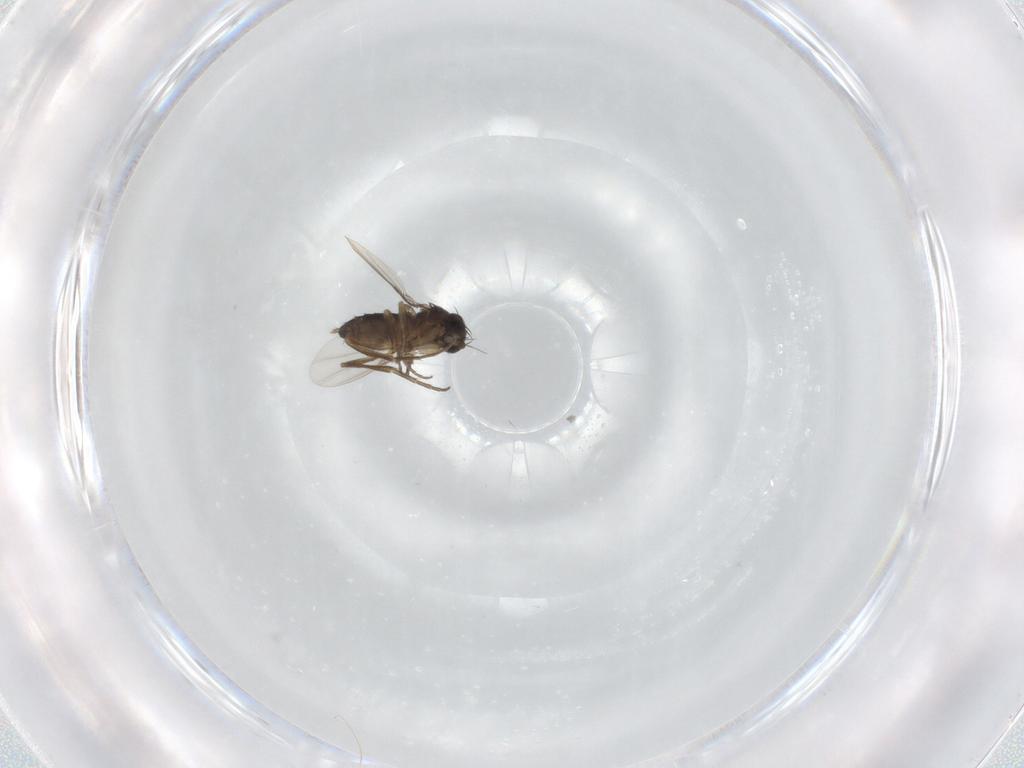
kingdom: Animalia
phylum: Arthropoda
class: Insecta
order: Diptera
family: Phoridae
